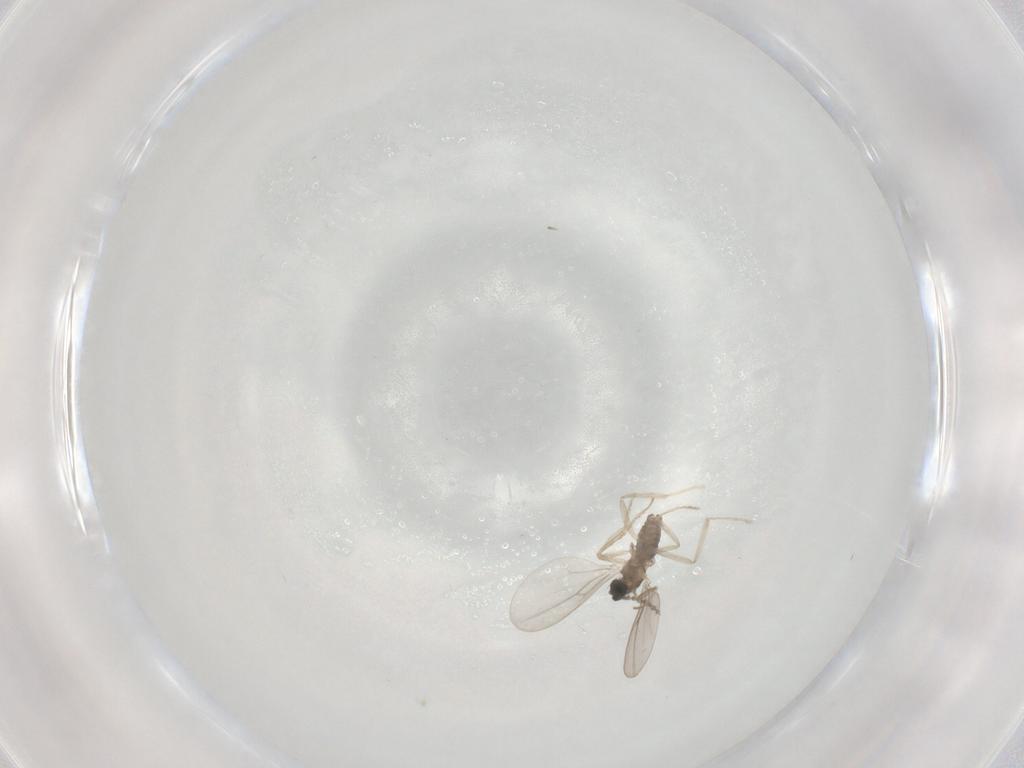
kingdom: Animalia
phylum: Arthropoda
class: Insecta
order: Diptera
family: Cecidomyiidae
